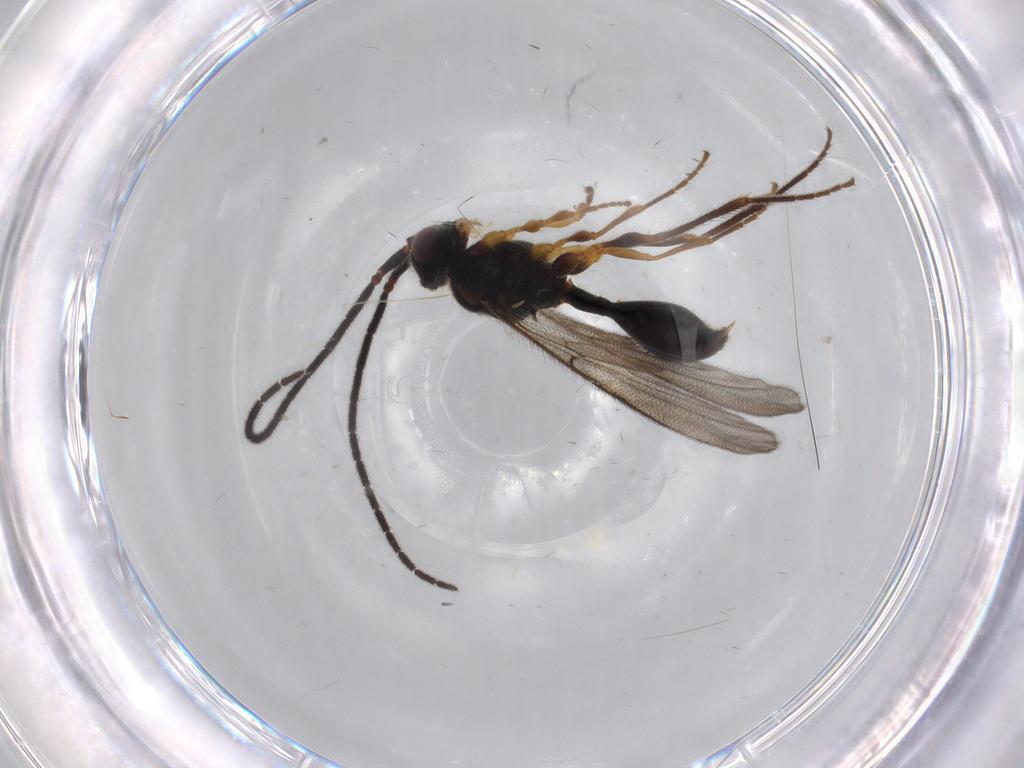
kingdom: Animalia
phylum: Arthropoda
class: Insecta
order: Hymenoptera
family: Diapriidae
